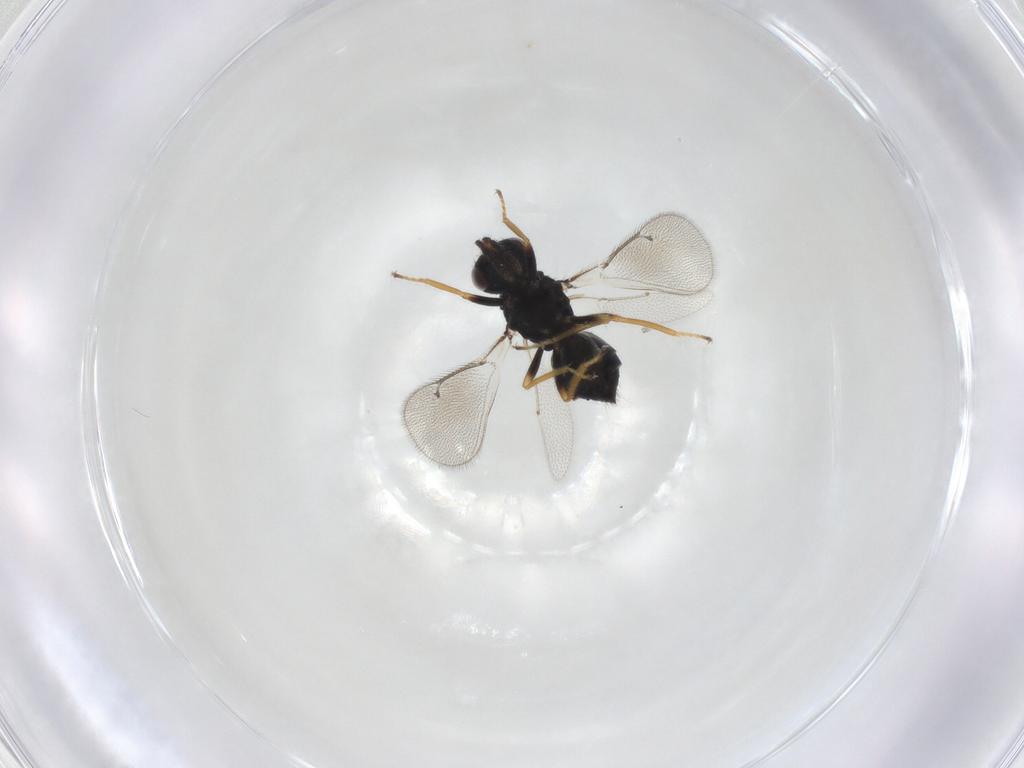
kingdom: Animalia
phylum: Arthropoda
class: Insecta
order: Hymenoptera
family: Eulophidae
